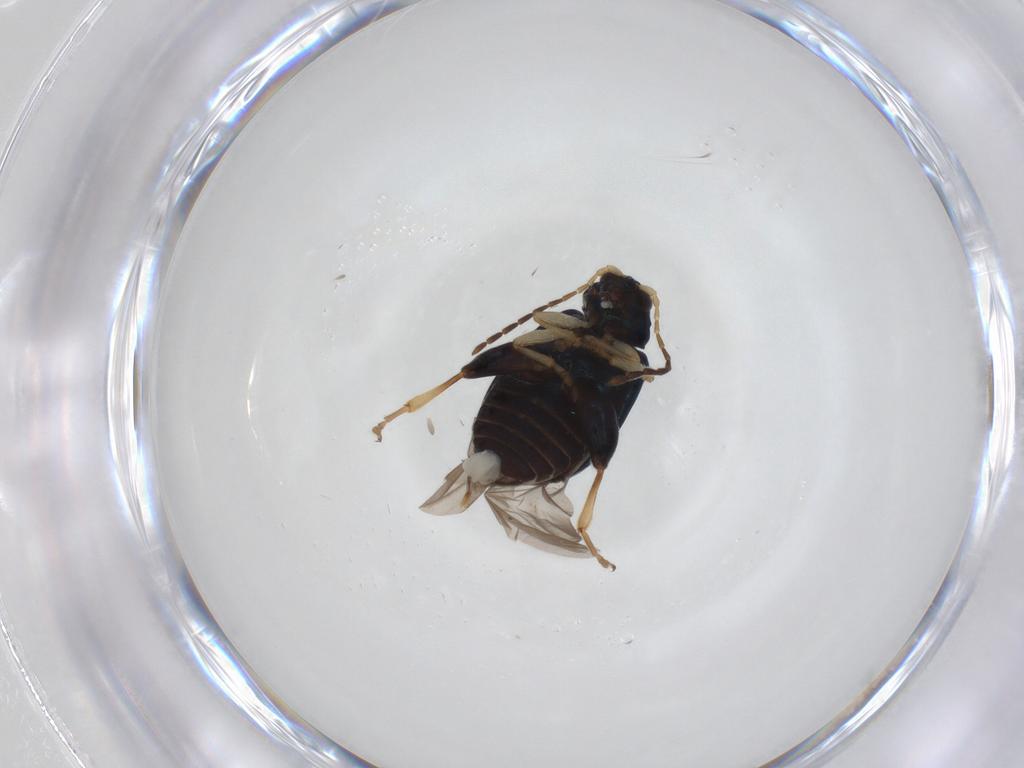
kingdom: Animalia
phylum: Arthropoda
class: Insecta
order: Coleoptera
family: Chrysomelidae
